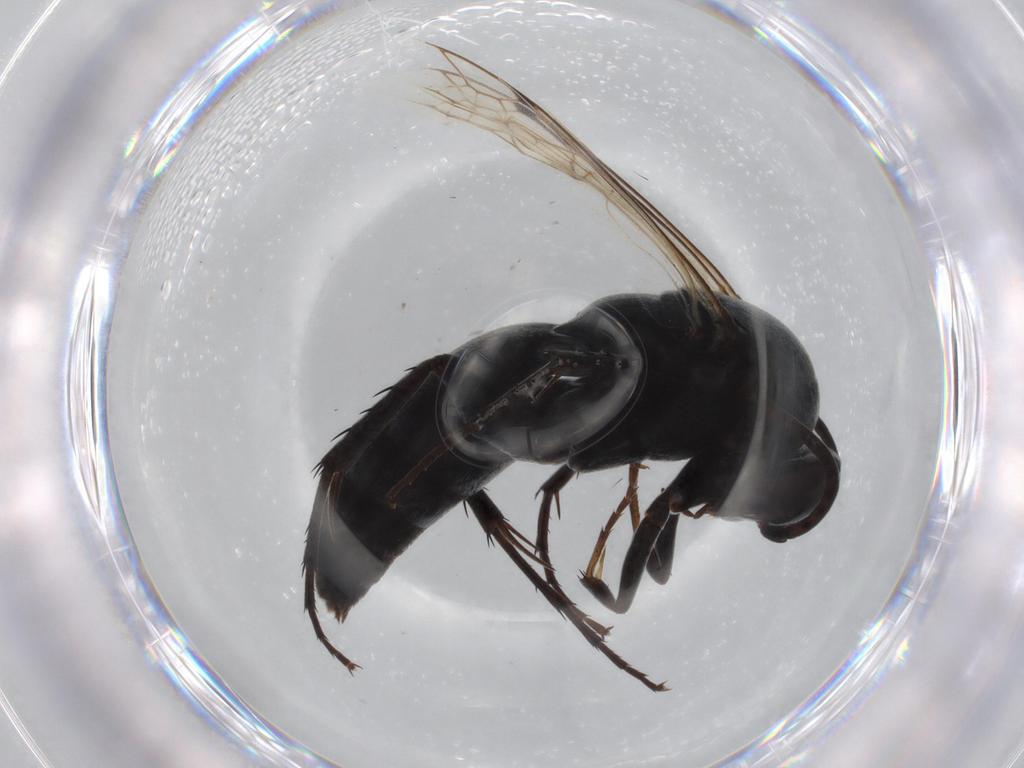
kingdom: Animalia
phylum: Arthropoda
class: Insecta
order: Hymenoptera
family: Pompilidae
